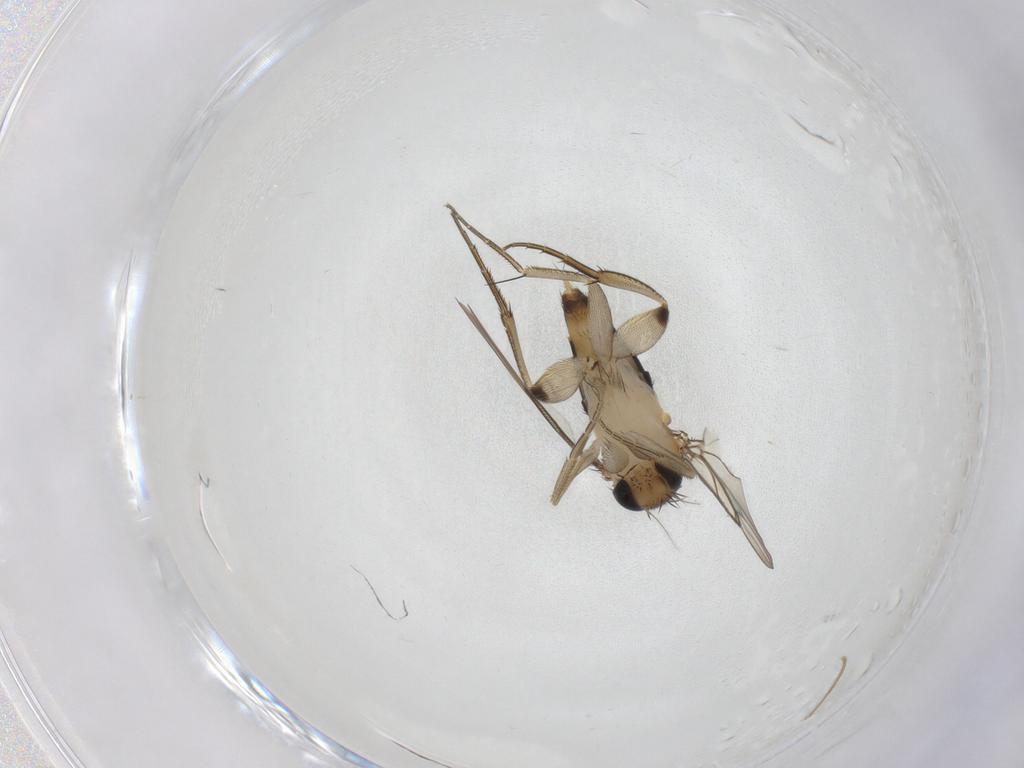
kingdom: Animalia
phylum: Arthropoda
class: Insecta
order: Diptera
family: Phoridae
